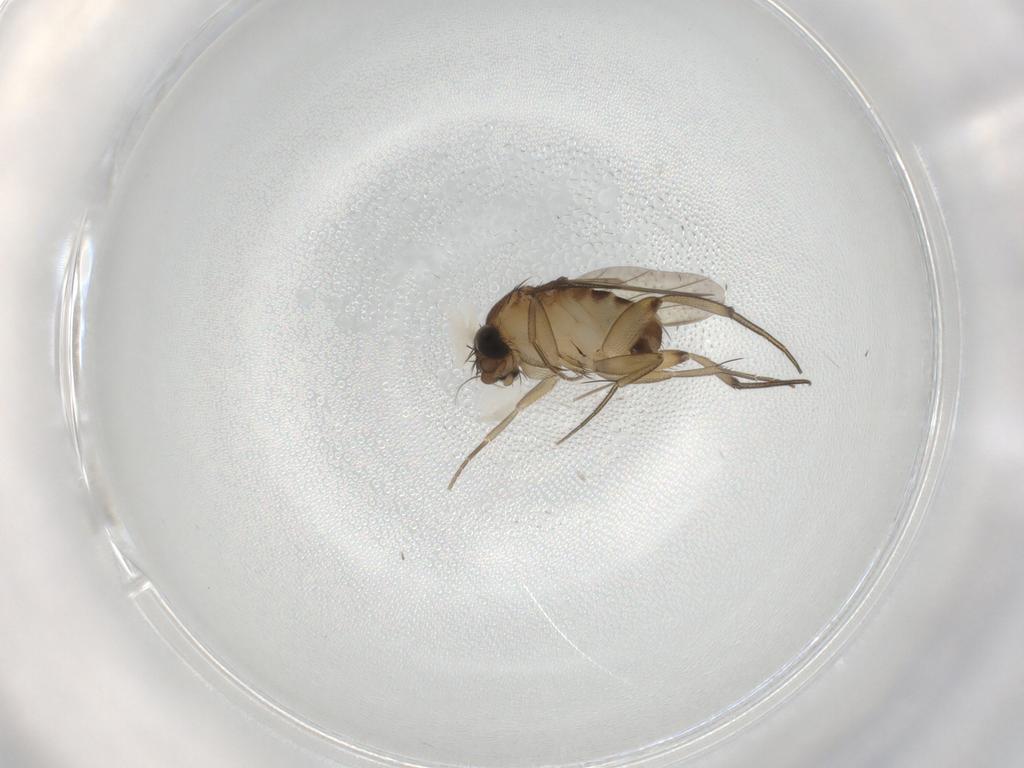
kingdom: Animalia
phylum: Arthropoda
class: Insecta
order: Diptera
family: Phoridae
